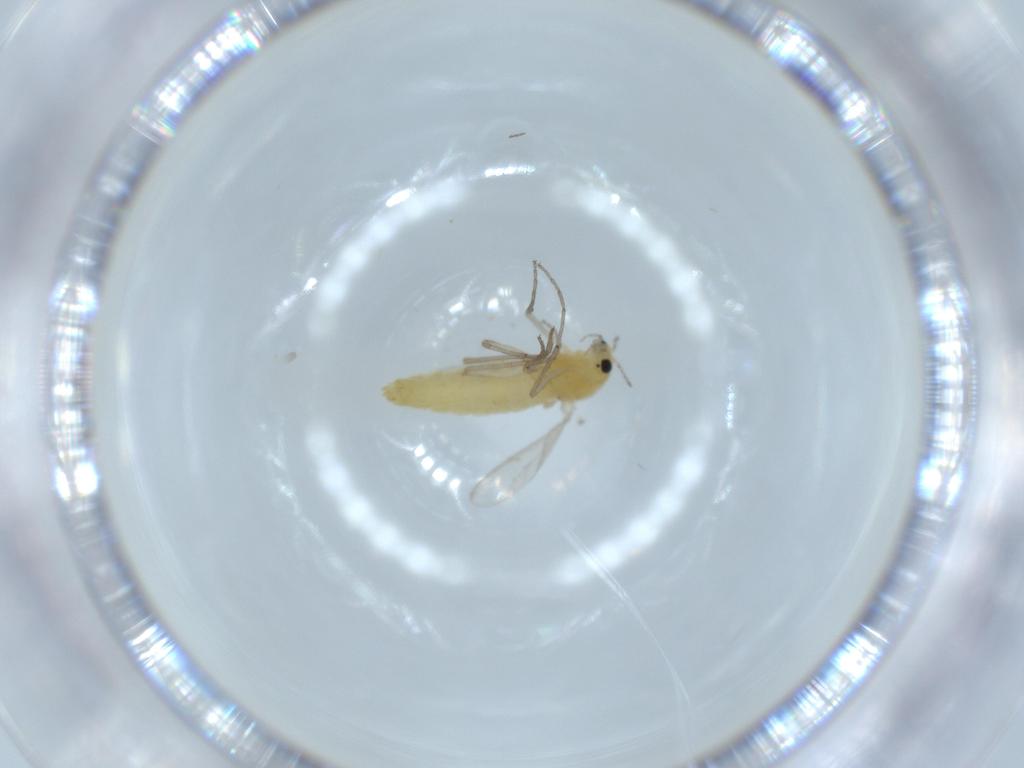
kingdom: Animalia
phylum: Arthropoda
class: Insecta
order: Diptera
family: Chironomidae
